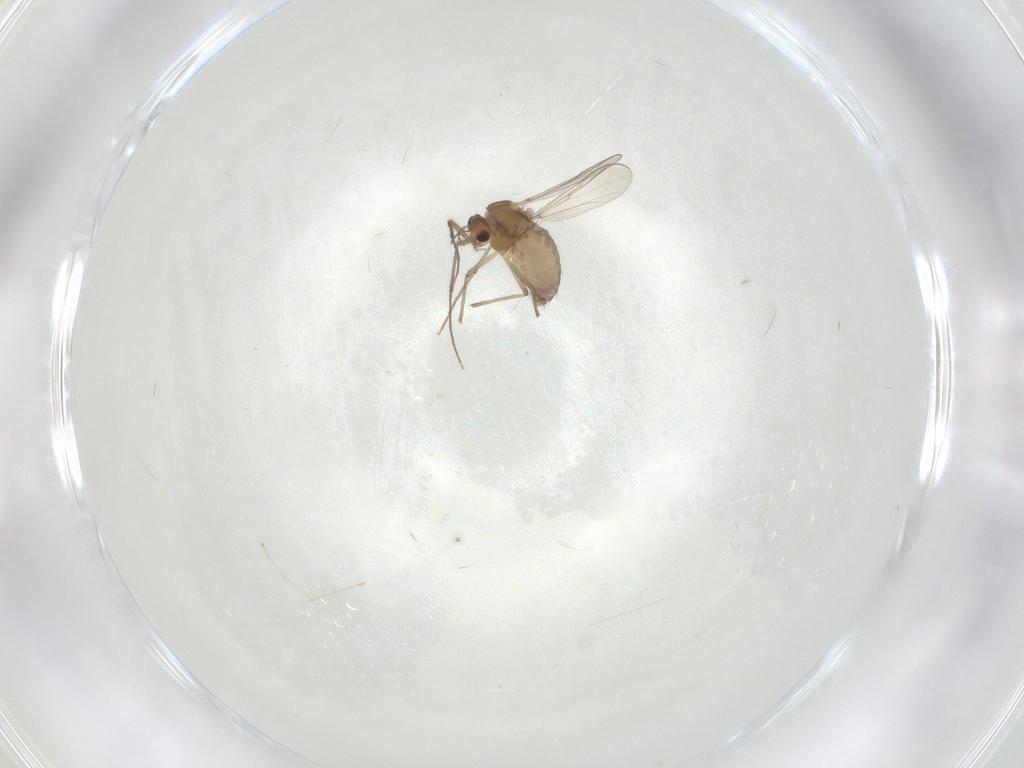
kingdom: Animalia
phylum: Arthropoda
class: Insecta
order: Diptera
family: Chironomidae
